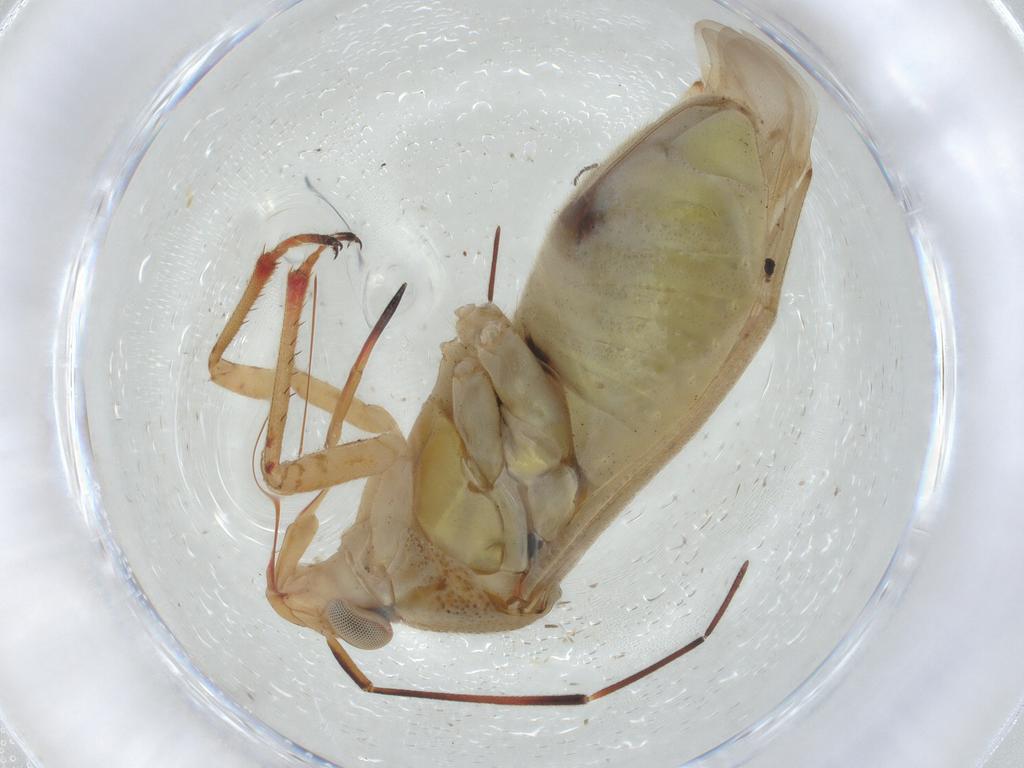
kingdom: Animalia
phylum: Arthropoda
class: Insecta
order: Hemiptera
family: Miridae
